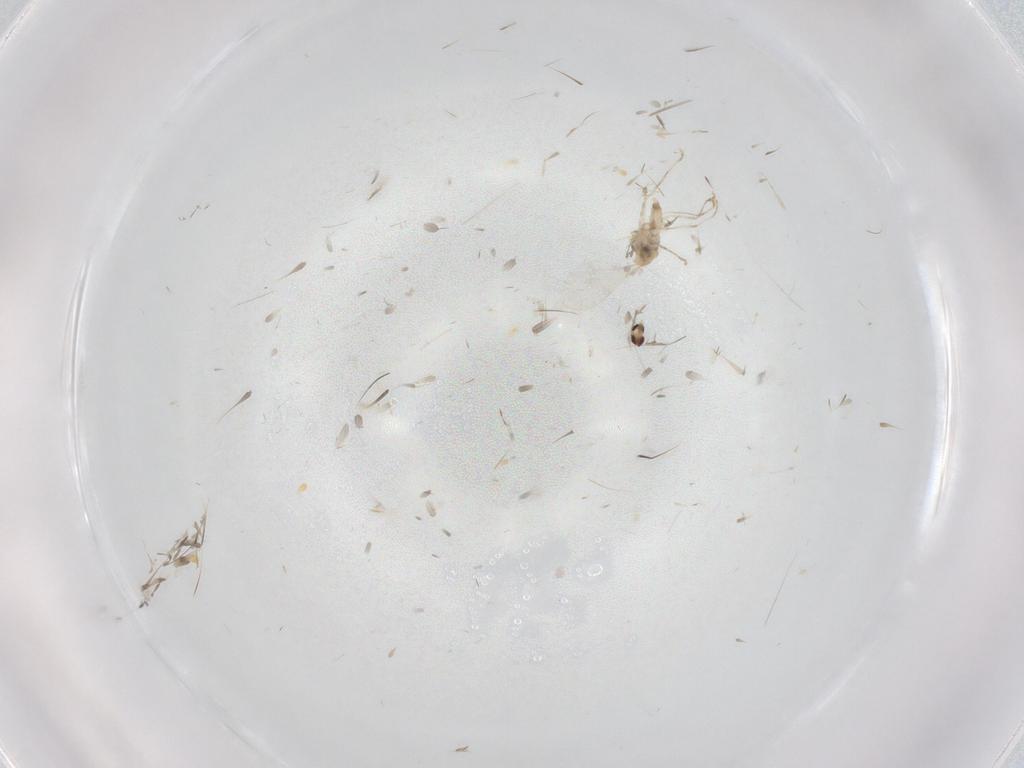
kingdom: Animalia
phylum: Arthropoda
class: Insecta
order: Diptera
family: Cecidomyiidae
